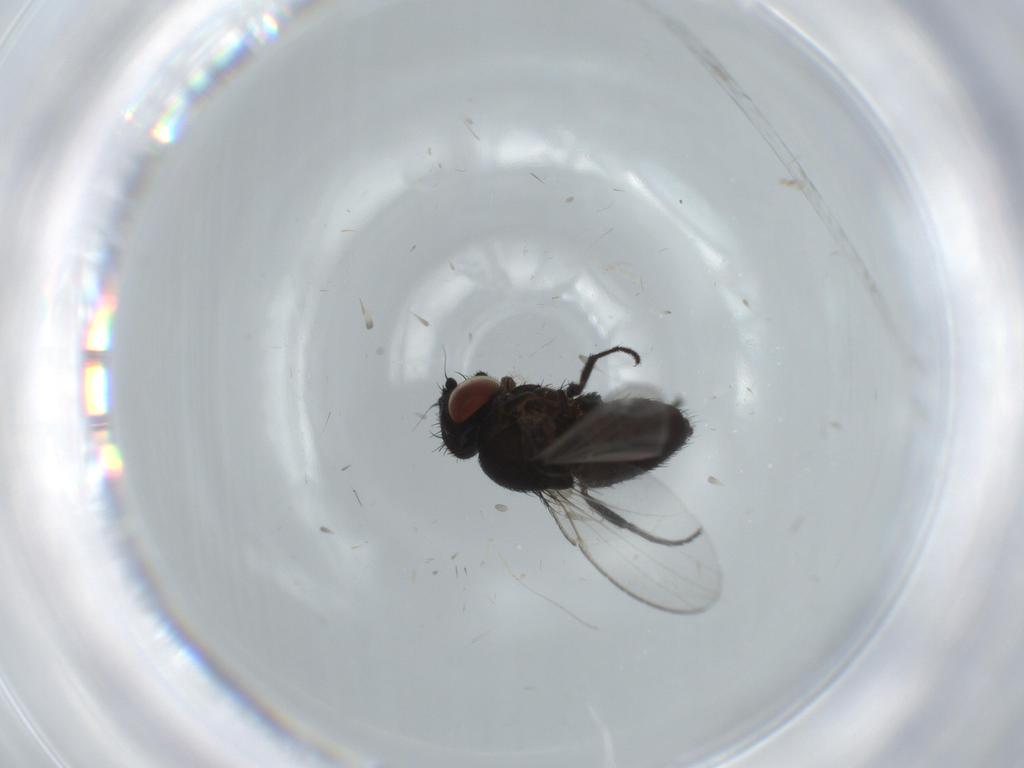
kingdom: Animalia
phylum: Arthropoda
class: Insecta
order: Diptera
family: Milichiidae
